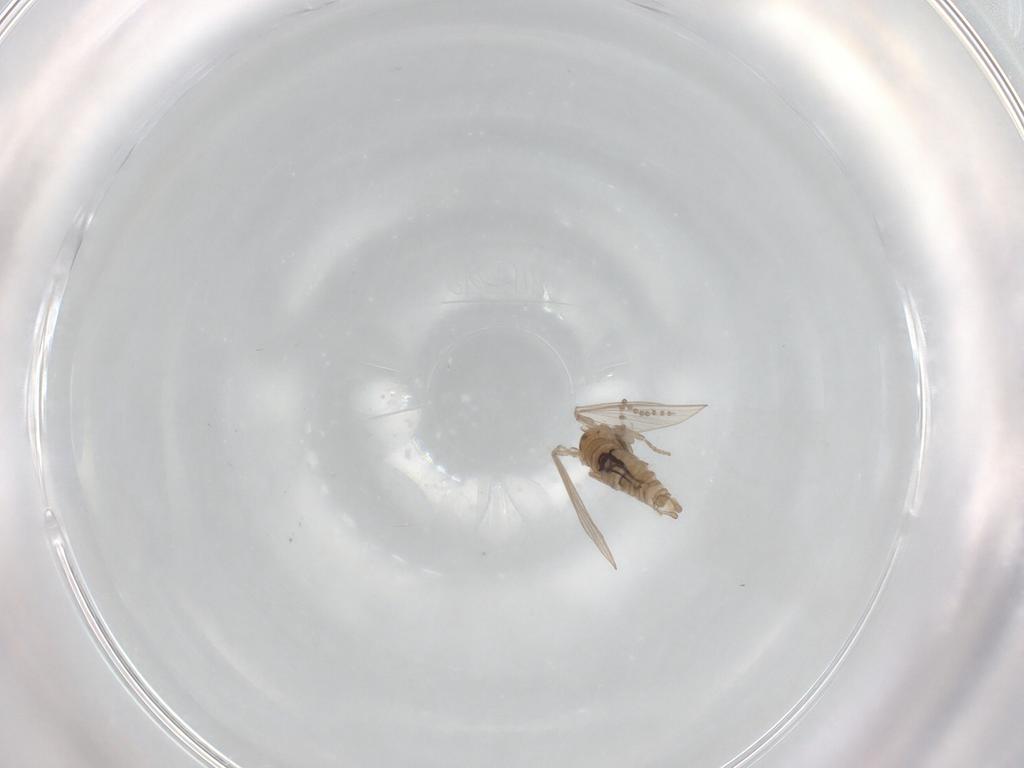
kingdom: Animalia
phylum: Arthropoda
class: Insecta
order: Diptera
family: Psychodidae
